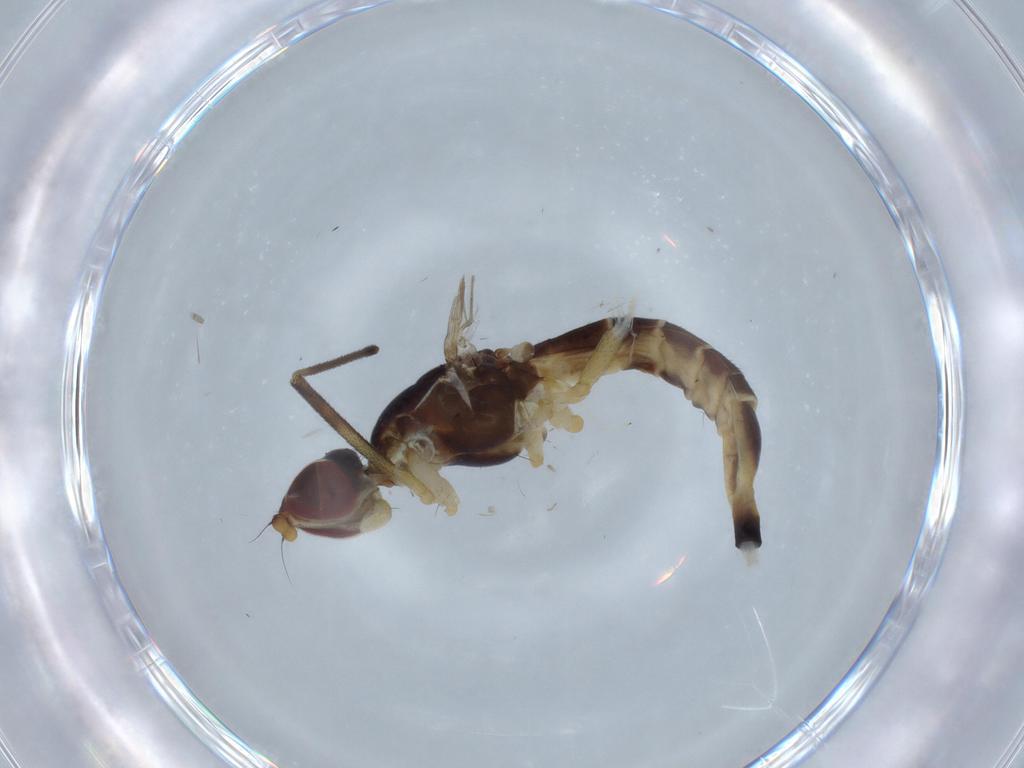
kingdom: Animalia
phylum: Arthropoda
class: Insecta
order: Diptera
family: Micropezidae
